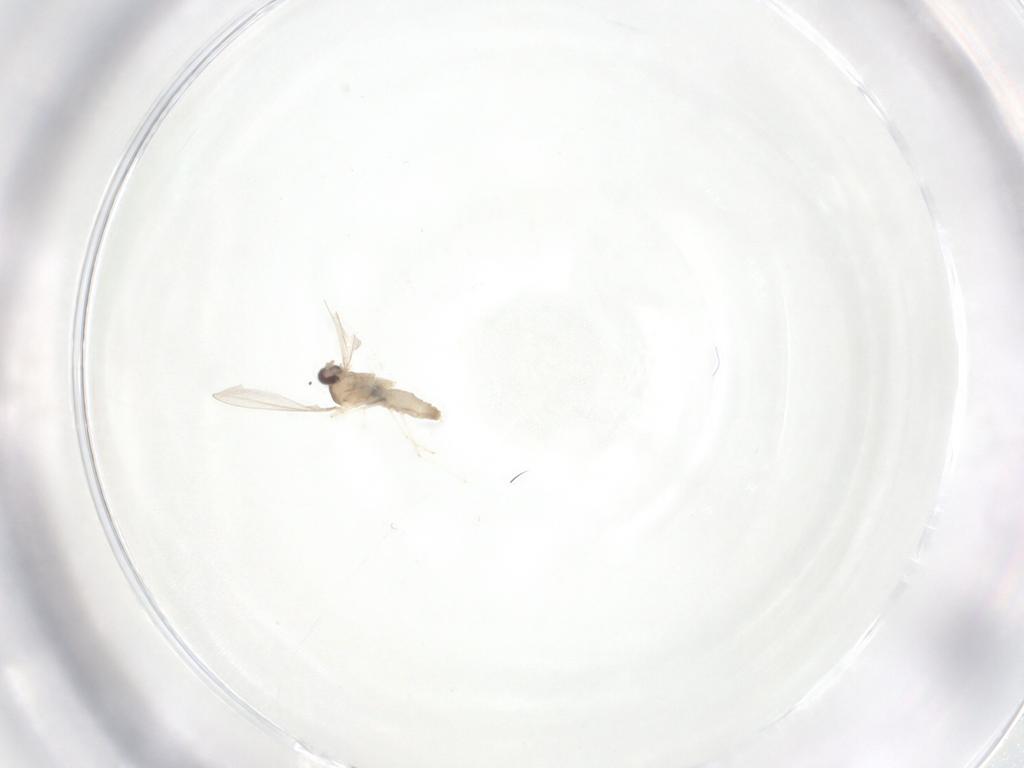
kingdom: Animalia
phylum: Arthropoda
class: Insecta
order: Diptera
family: Cecidomyiidae
